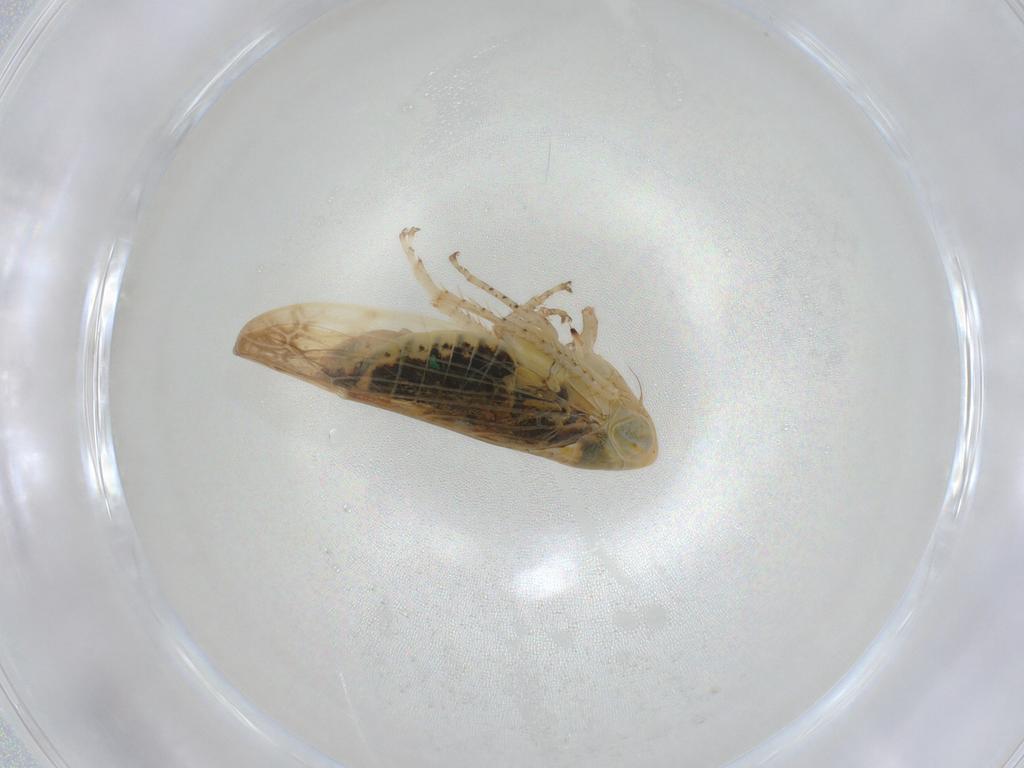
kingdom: Animalia
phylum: Arthropoda
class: Insecta
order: Hemiptera
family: Cicadellidae
